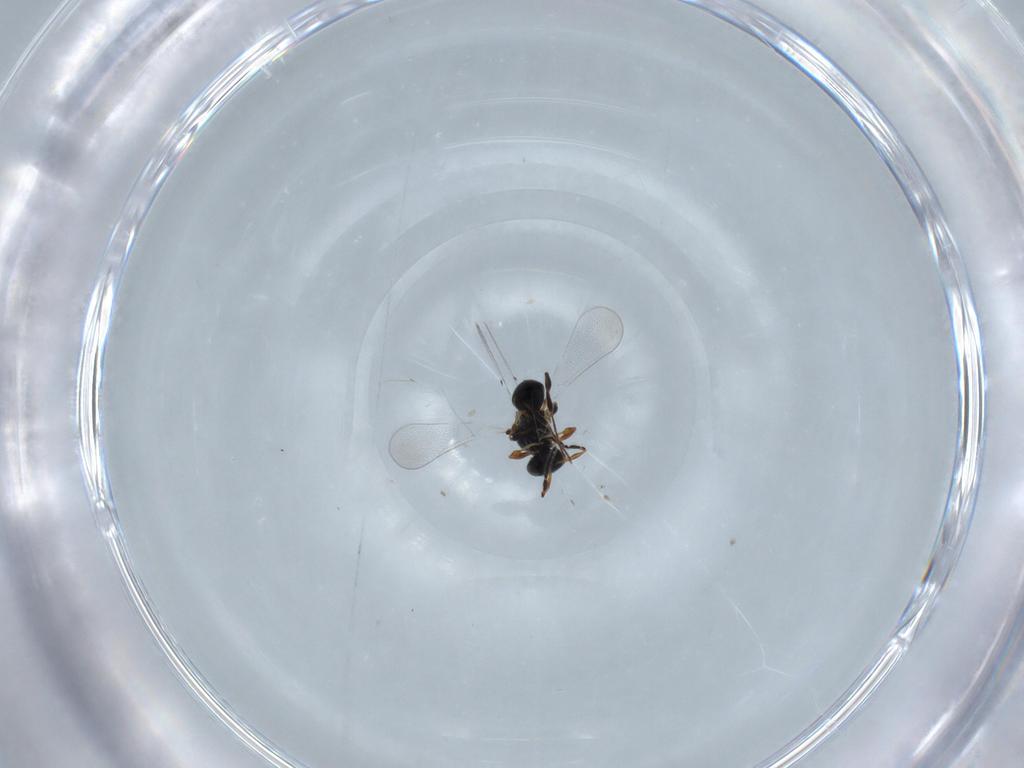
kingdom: Animalia
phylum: Arthropoda
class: Insecta
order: Hymenoptera
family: Platygastridae
